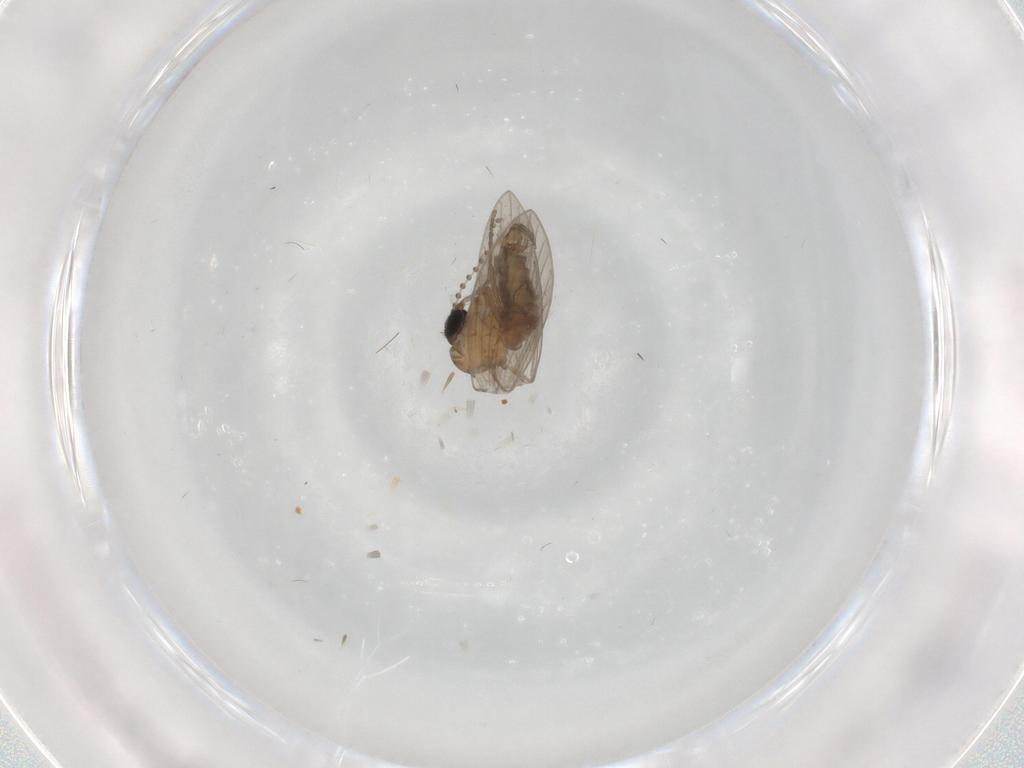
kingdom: Animalia
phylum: Arthropoda
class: Insecta
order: Diptera
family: Psychodidae
